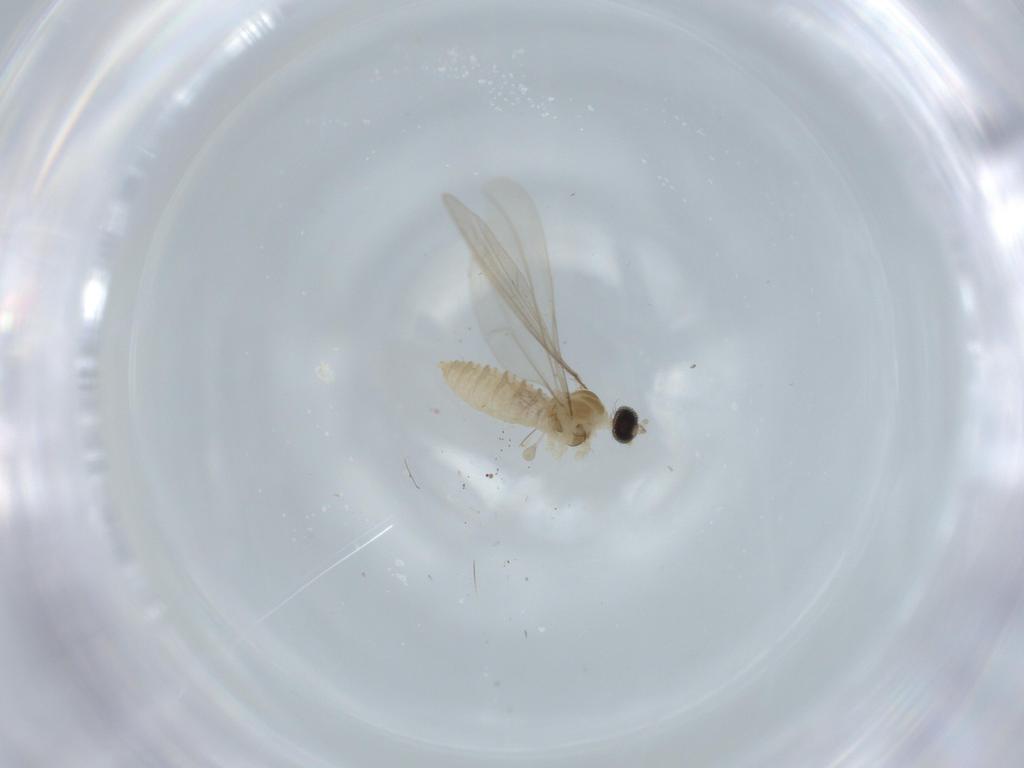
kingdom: Animalia
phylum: Arthropoda
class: Insecta
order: Diptera
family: Cecidomyiidae
